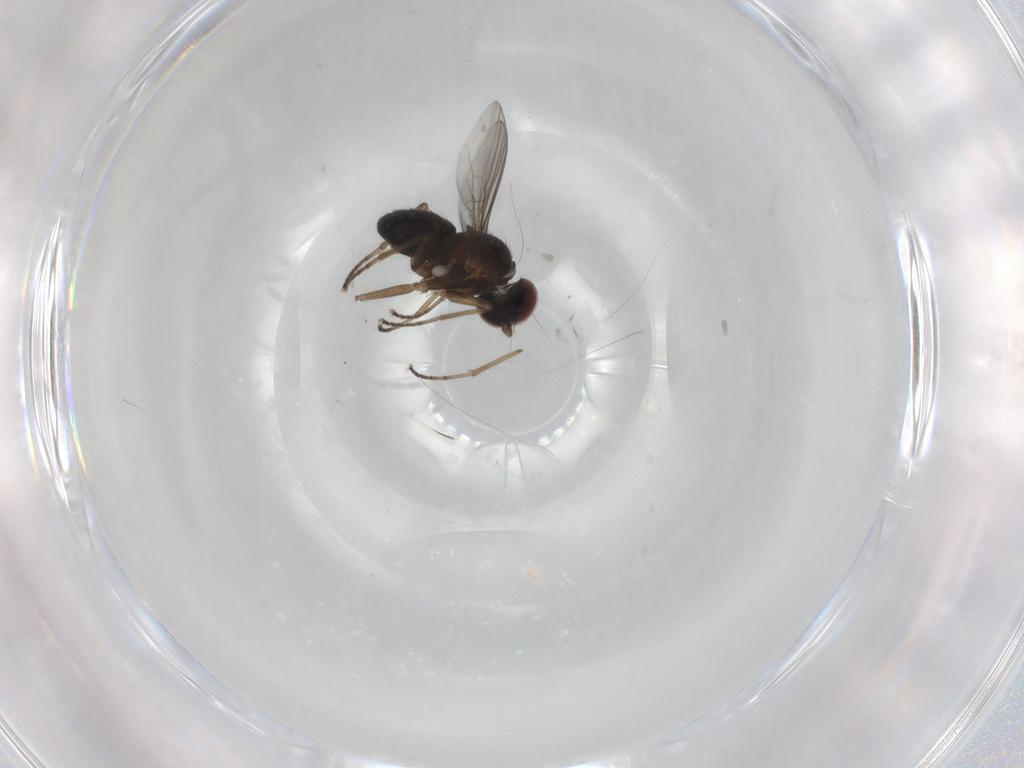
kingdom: Animalia
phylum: Arthropoda
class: Insecta
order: Diptera
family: Dolichopodidae
